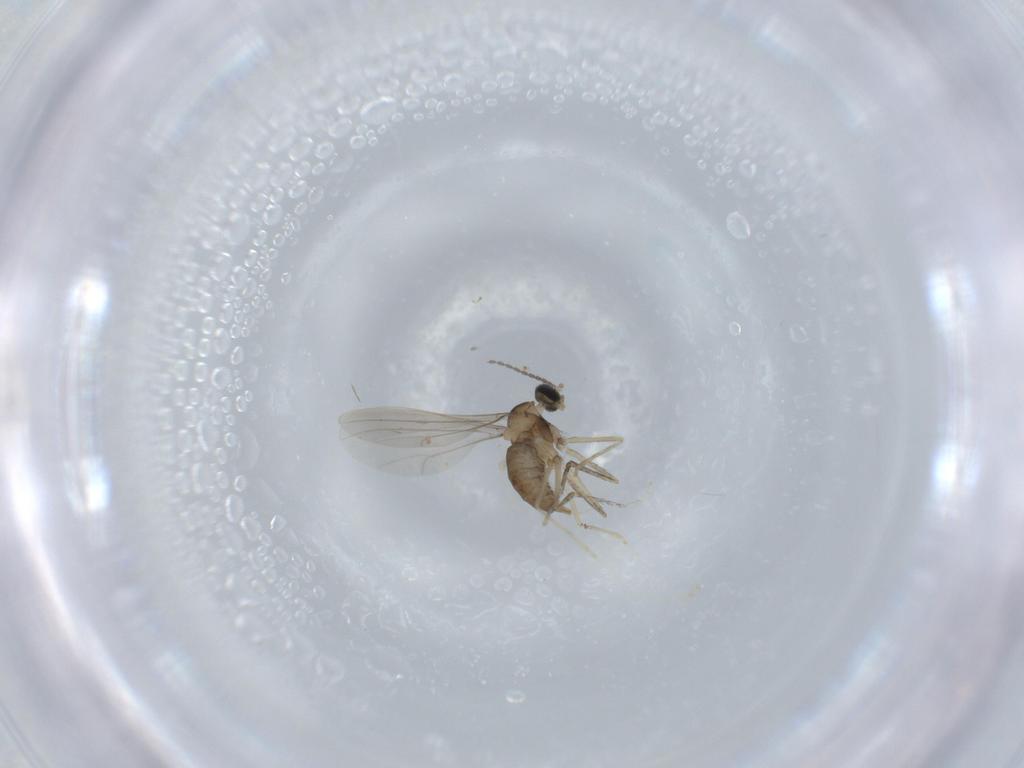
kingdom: Animalia
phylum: Arthropoda
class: Insecta
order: Diptera
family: Cecidomyiidae
